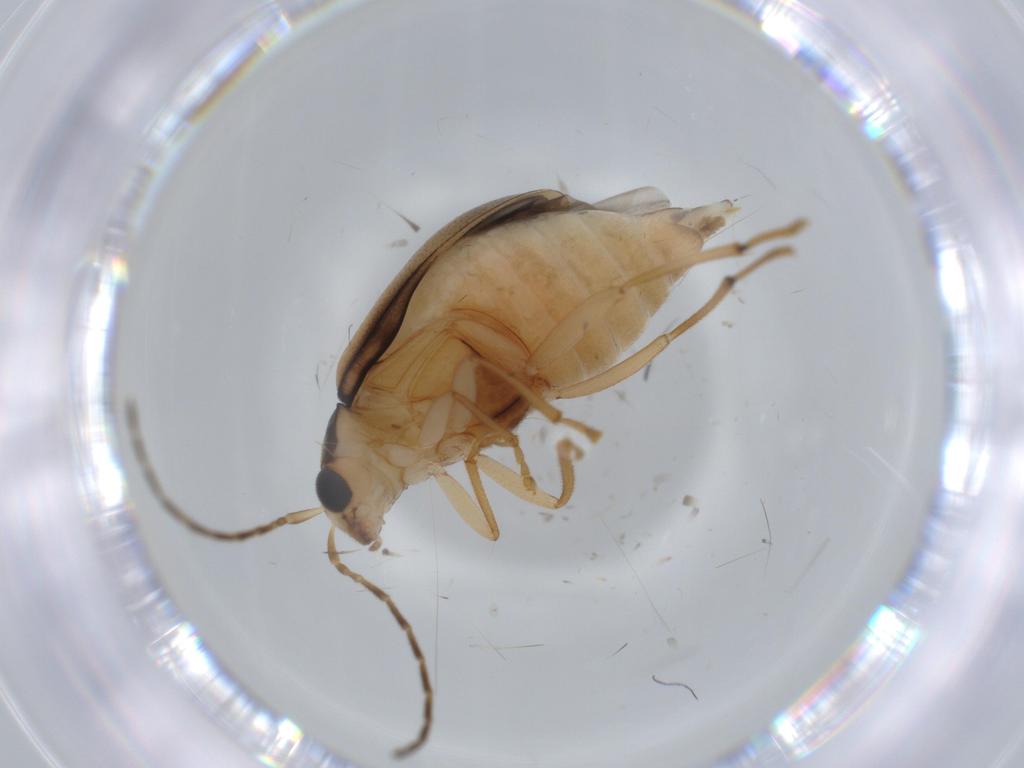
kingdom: Animalia
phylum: Arthropoda
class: Insecta
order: Coleoptera
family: Chrysomelidae
